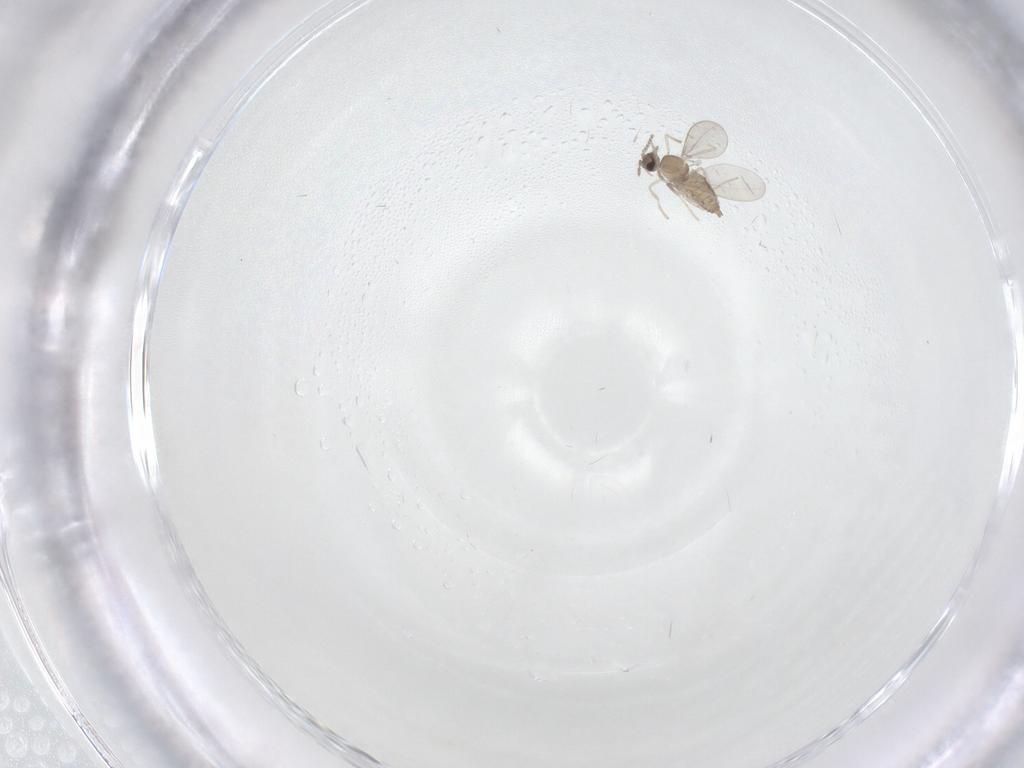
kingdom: Animalia
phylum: Arthropoda
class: Insecta
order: Diptera
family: Cecidomyiidae
